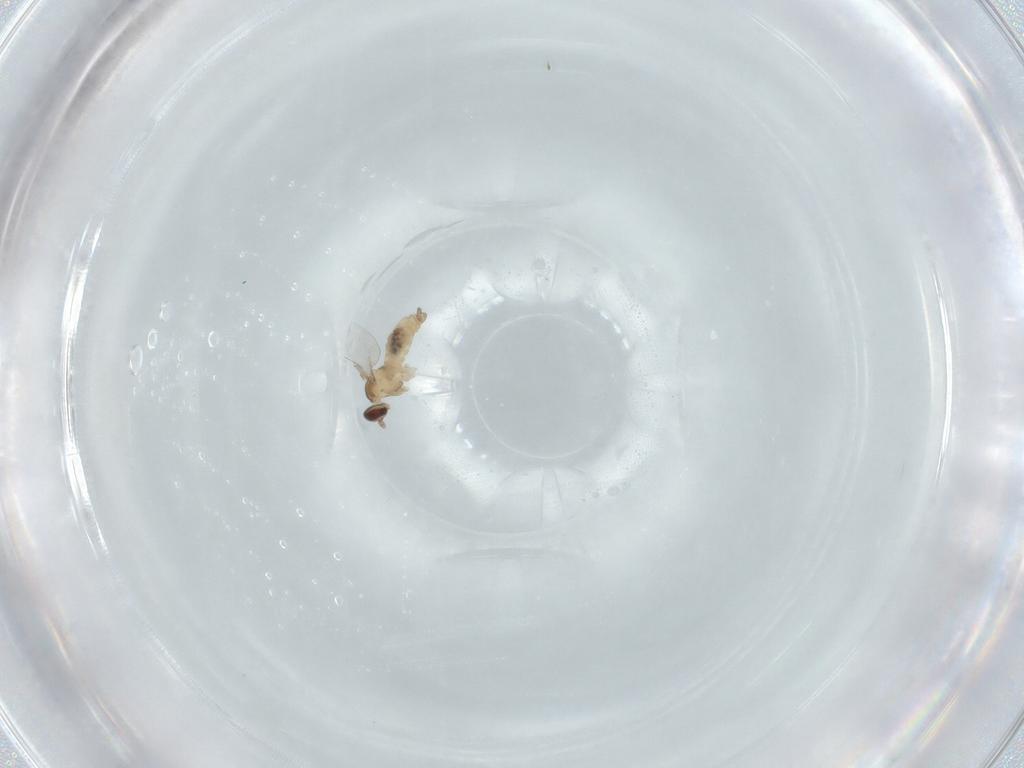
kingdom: Animalia
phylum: Arthropoda
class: Insecta
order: Diptera
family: Cecidomyiidae
